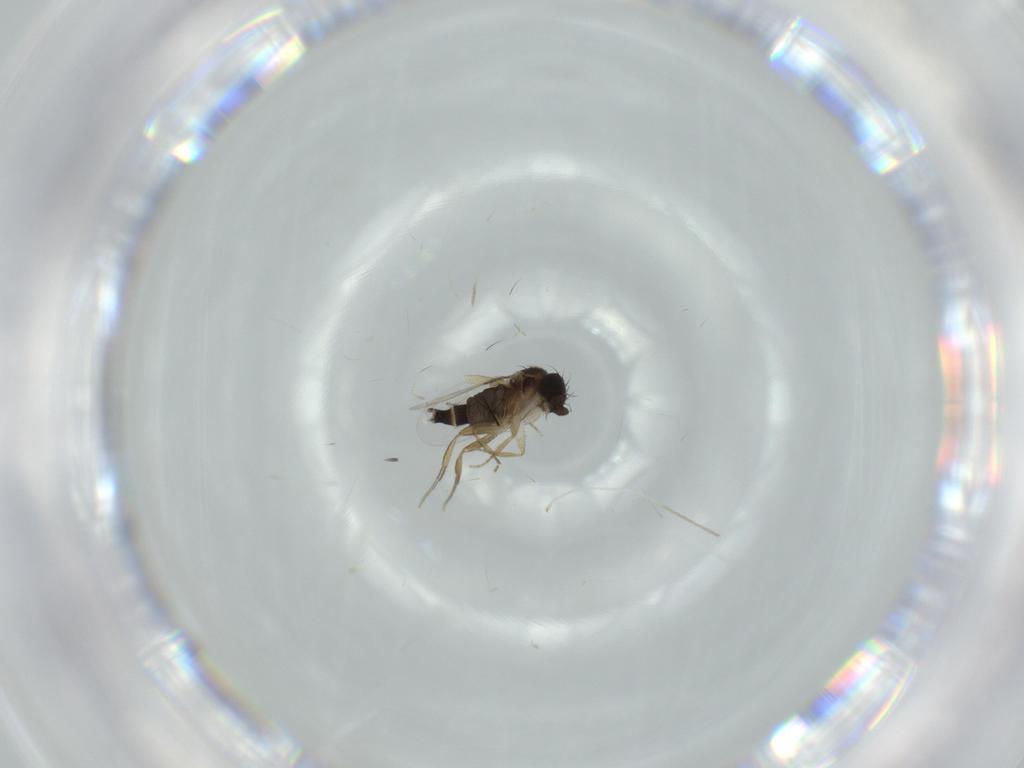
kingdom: Animalia
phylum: Arthropoda
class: Insecta
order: Diptera
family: Phoridae
